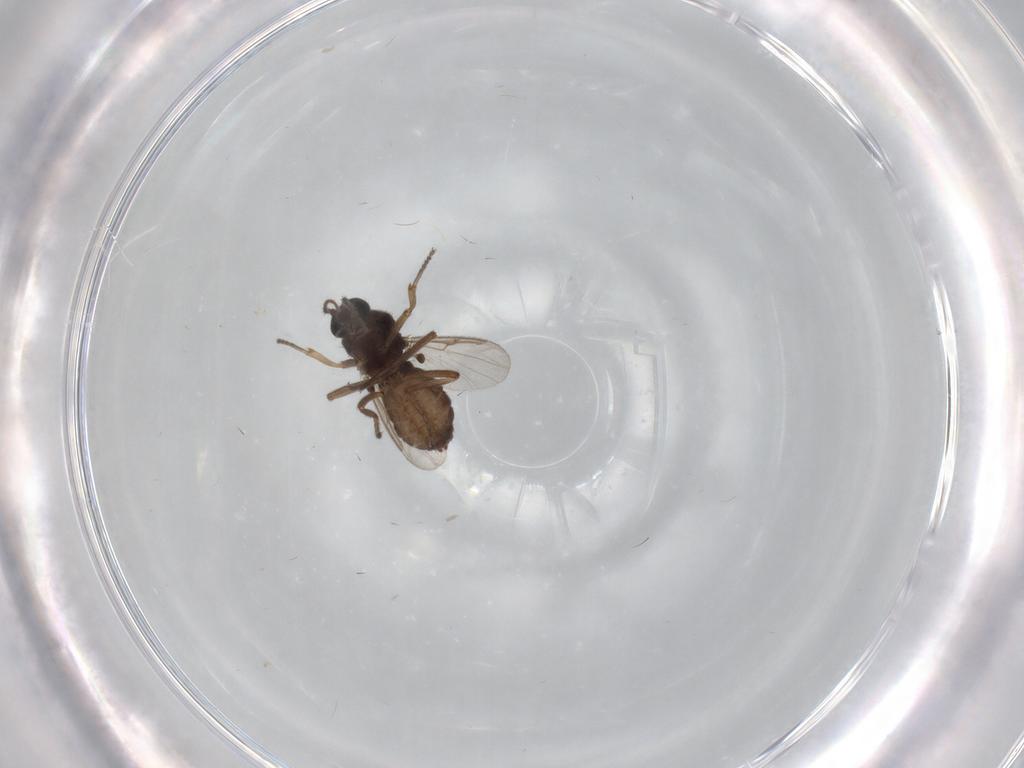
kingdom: Animalia
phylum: Arthropoda
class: Insecta
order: Diptera
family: Ceratopogonidae
